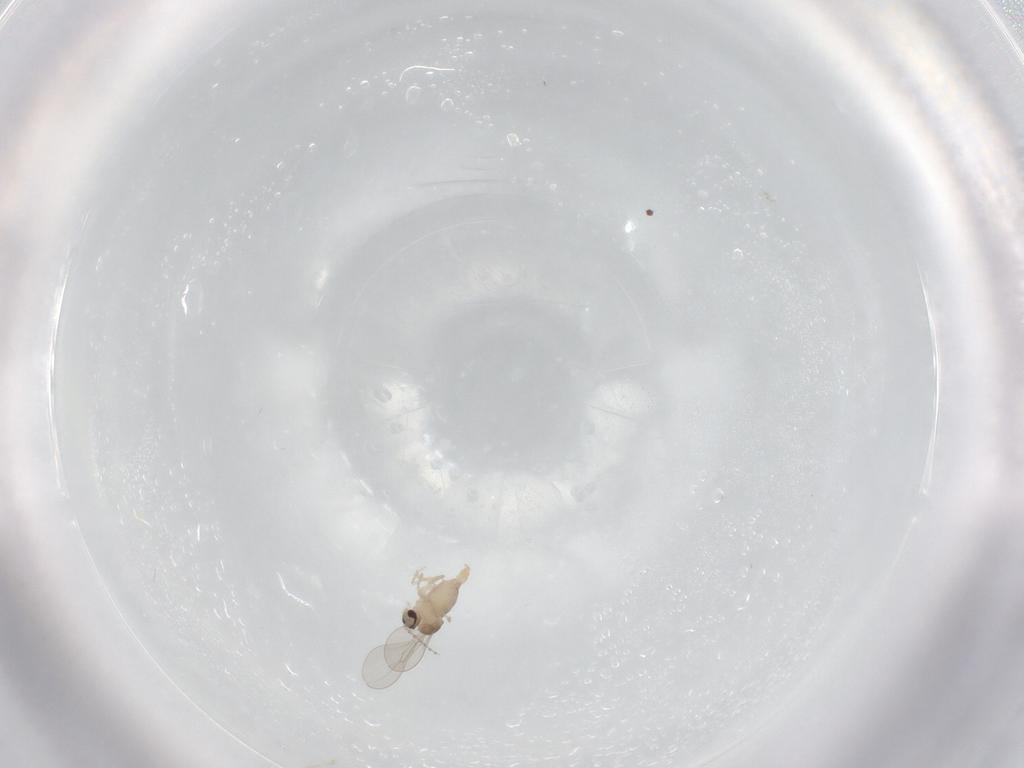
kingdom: Animalia
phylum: Arthropoda
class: Insecta
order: Diptera
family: Cecidomyiidae
